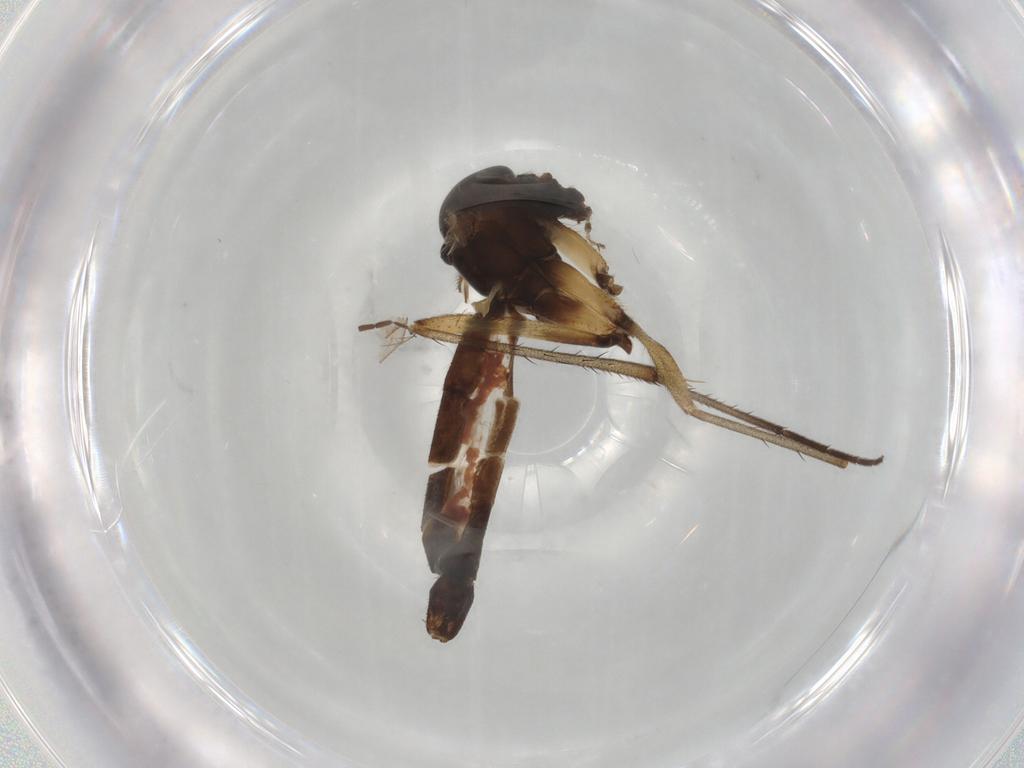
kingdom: Animalia
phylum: Arthropoda
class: Insecta
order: Diptera
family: Mycetophilidae
